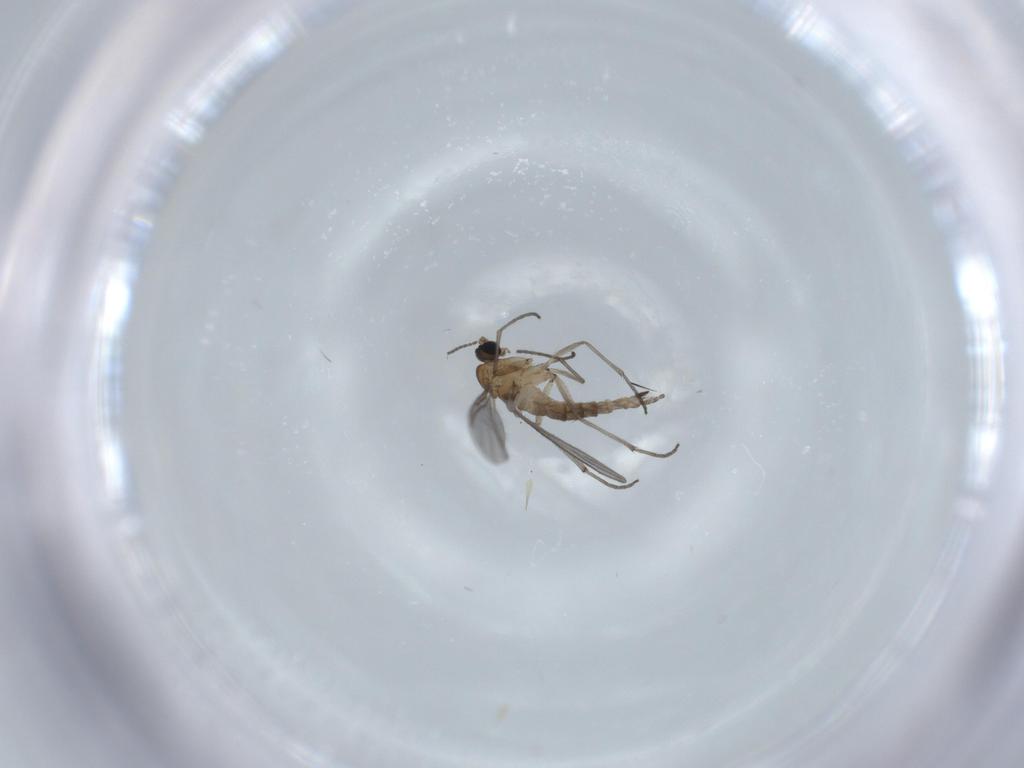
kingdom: Animalia
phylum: Arthropoda
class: Insecta
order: Diptera
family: Sciaridae
